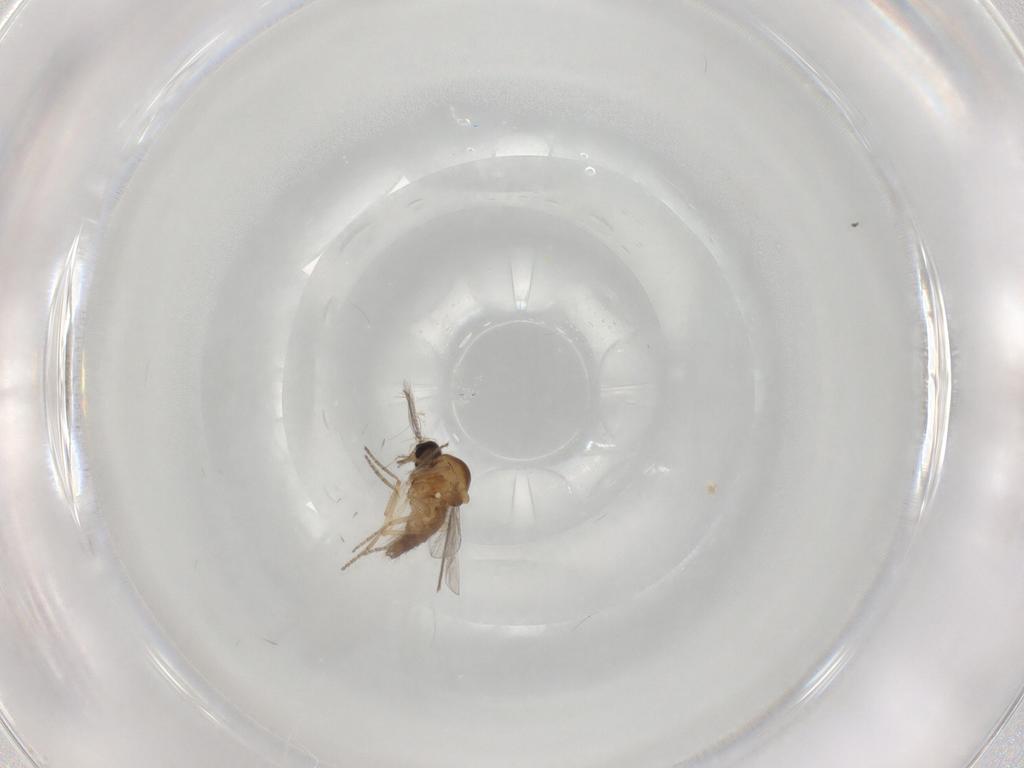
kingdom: Animalia
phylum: Arthropoda
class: Insecta
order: Diptera
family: Ceratopogonidae
